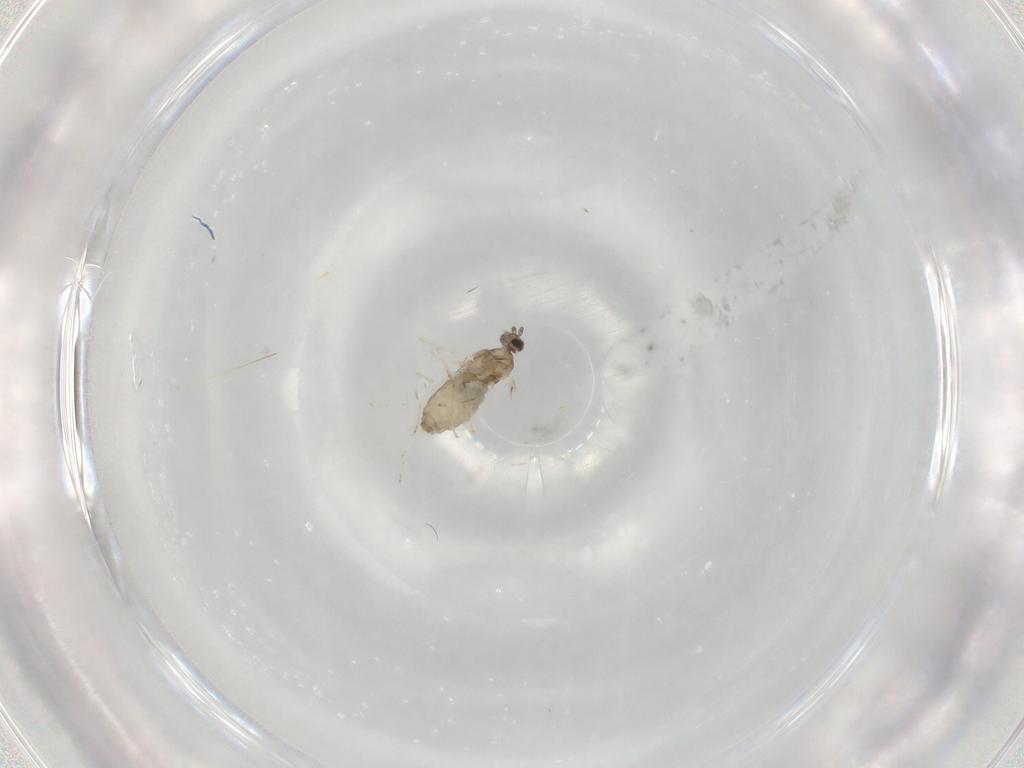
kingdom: Animalia
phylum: Arthropoda
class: Insecta
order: Diptera
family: Cecidomyiidae
